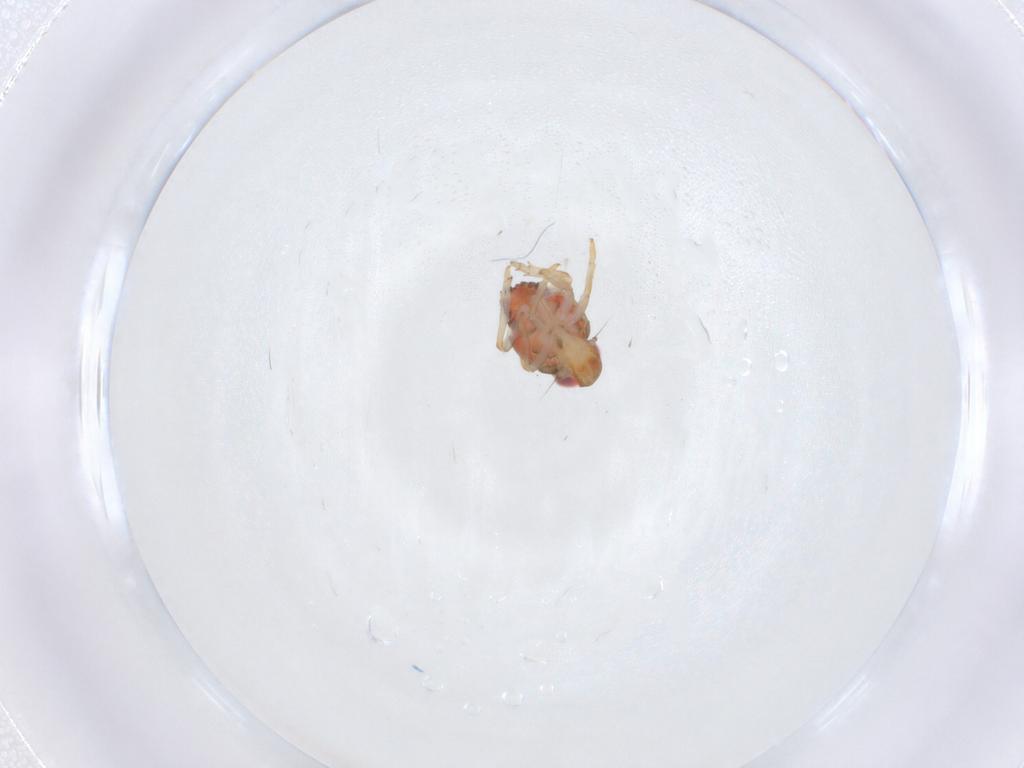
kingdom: Animalia
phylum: Arthropoda
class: Insecta
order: Hemiptera
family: Issidae
